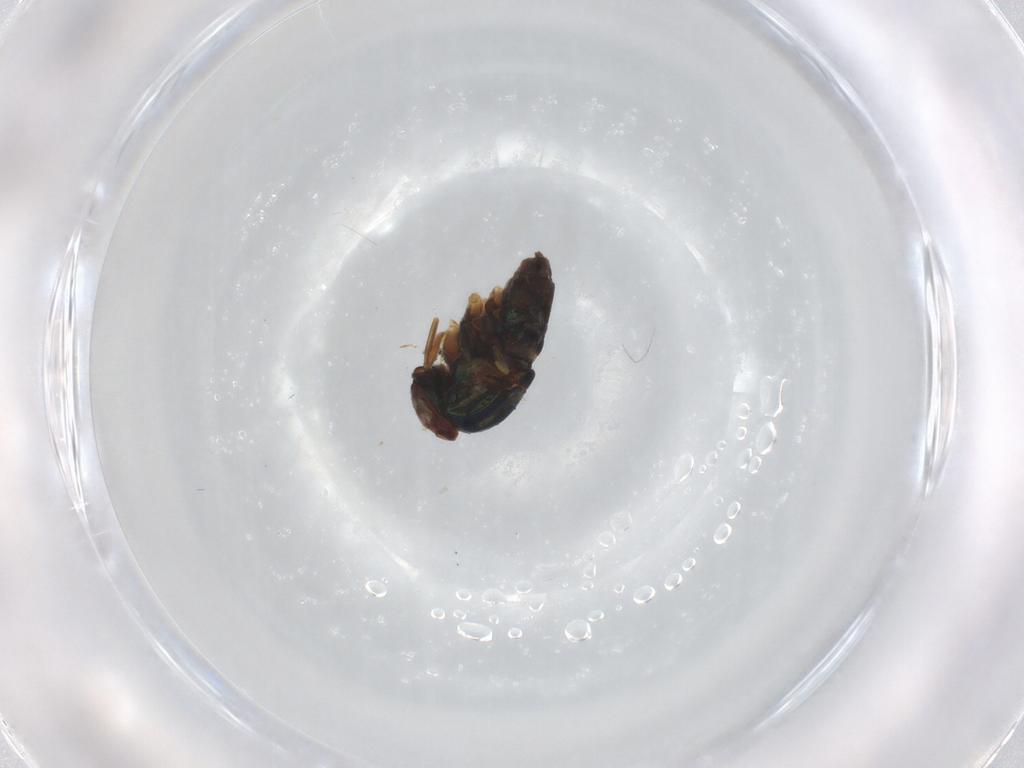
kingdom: Animalia
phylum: Arthropoda
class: Insecta
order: Diptera
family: Dolichopodidae
